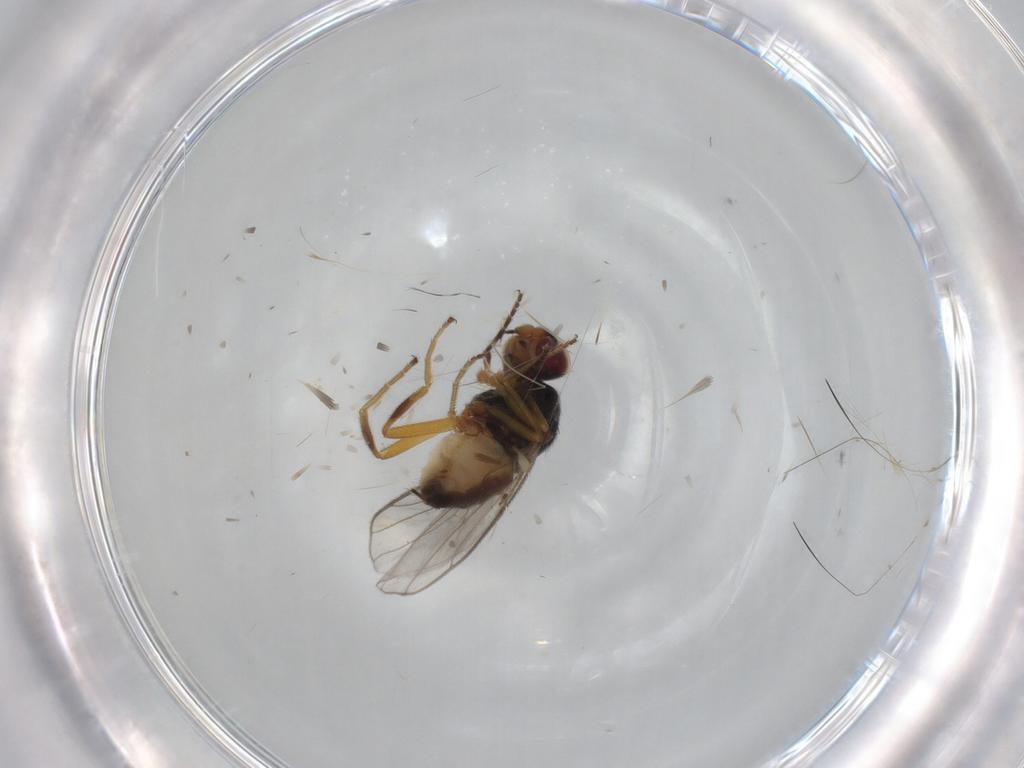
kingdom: Animalia
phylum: Arthropoda
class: Insecta
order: Diptera
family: Chloropidae
